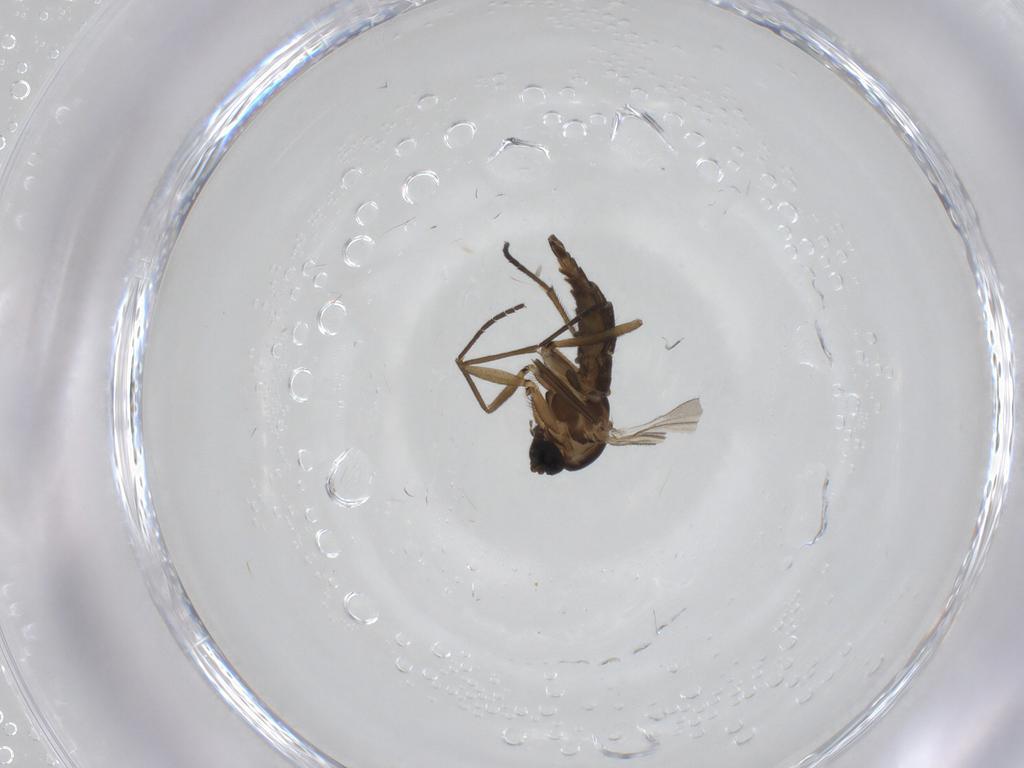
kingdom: Animalia
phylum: Arthropoda
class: Insecta
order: Diptera
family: Sciaridae
